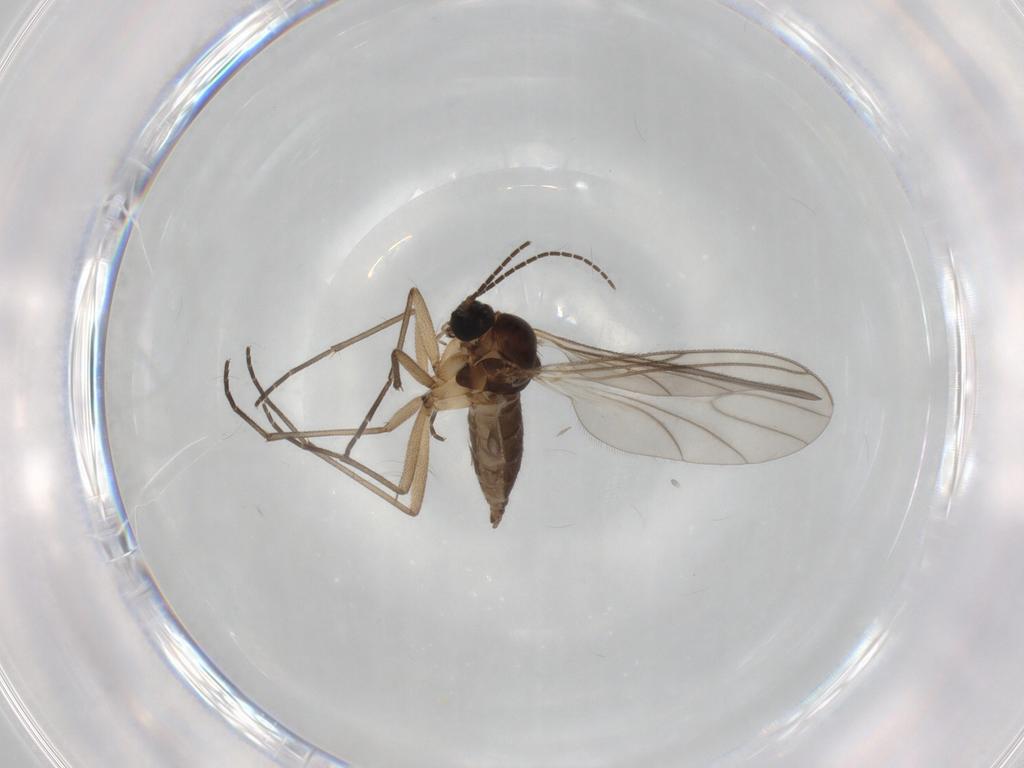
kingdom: Animalia
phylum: Arthropoda
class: Insecta
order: Diptera
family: Sciaridae
